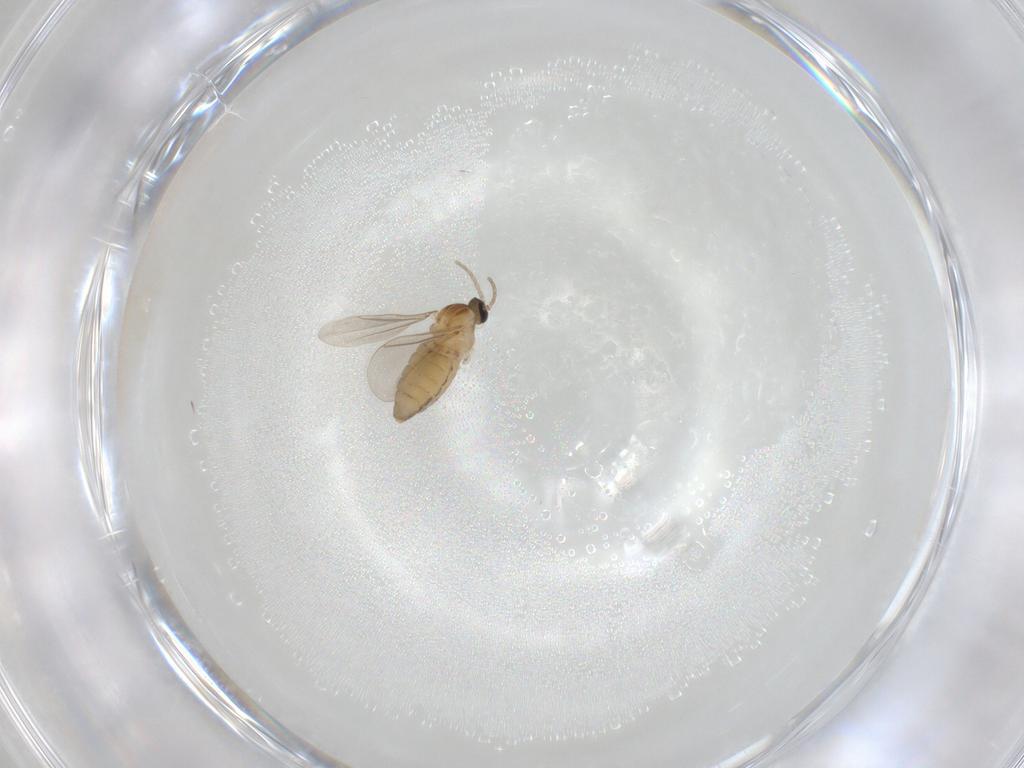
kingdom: Animalia
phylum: Arthropoda
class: Insecta
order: Diptera
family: Cecidomyiidae
